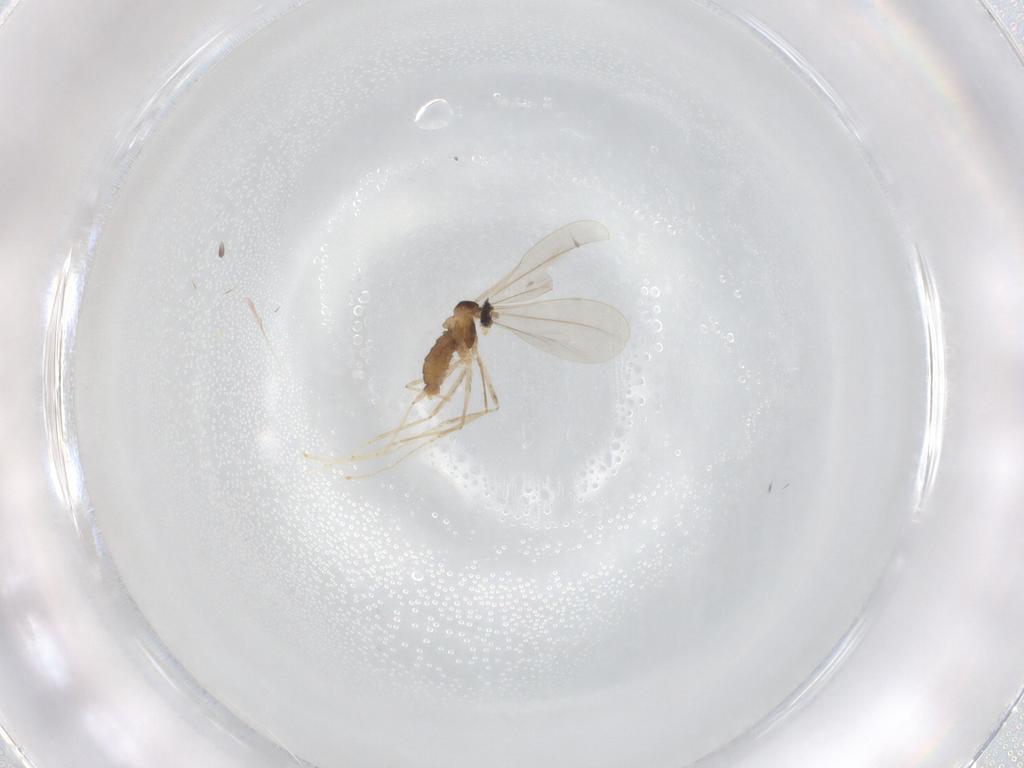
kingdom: Animalia
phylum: Arthropoda
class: Insecta
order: Diptera
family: Cecidomyiidae
